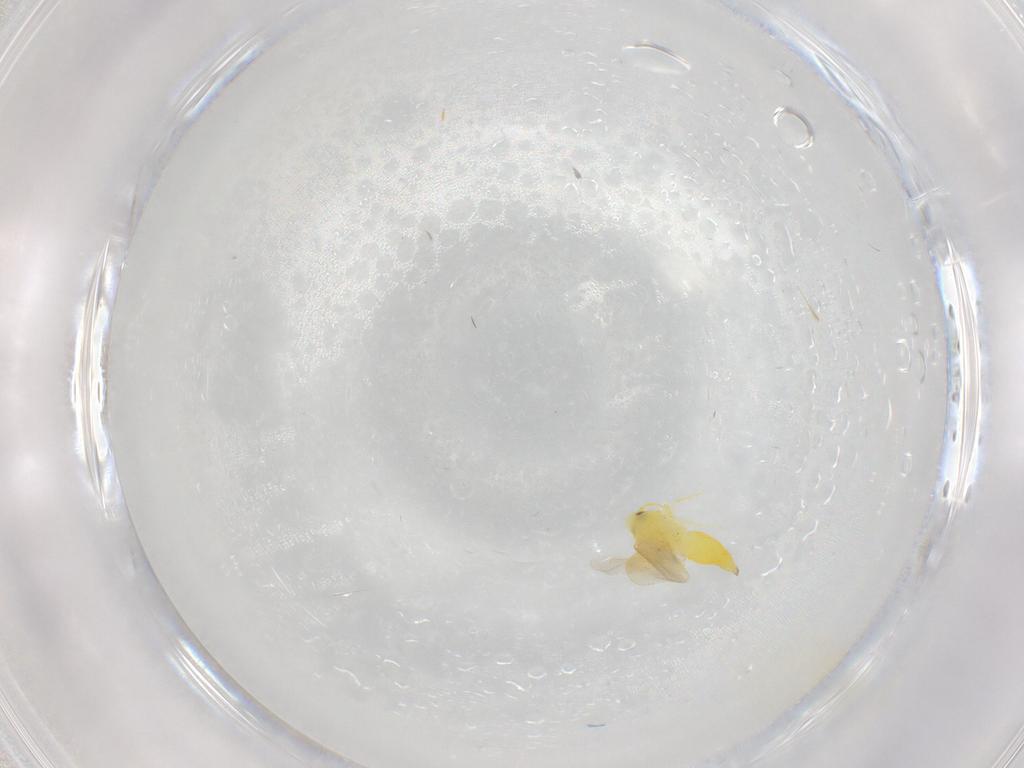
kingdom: Animalia
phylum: Arthropoda
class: Insecta
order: Hemiptera
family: Aleyrodidae
